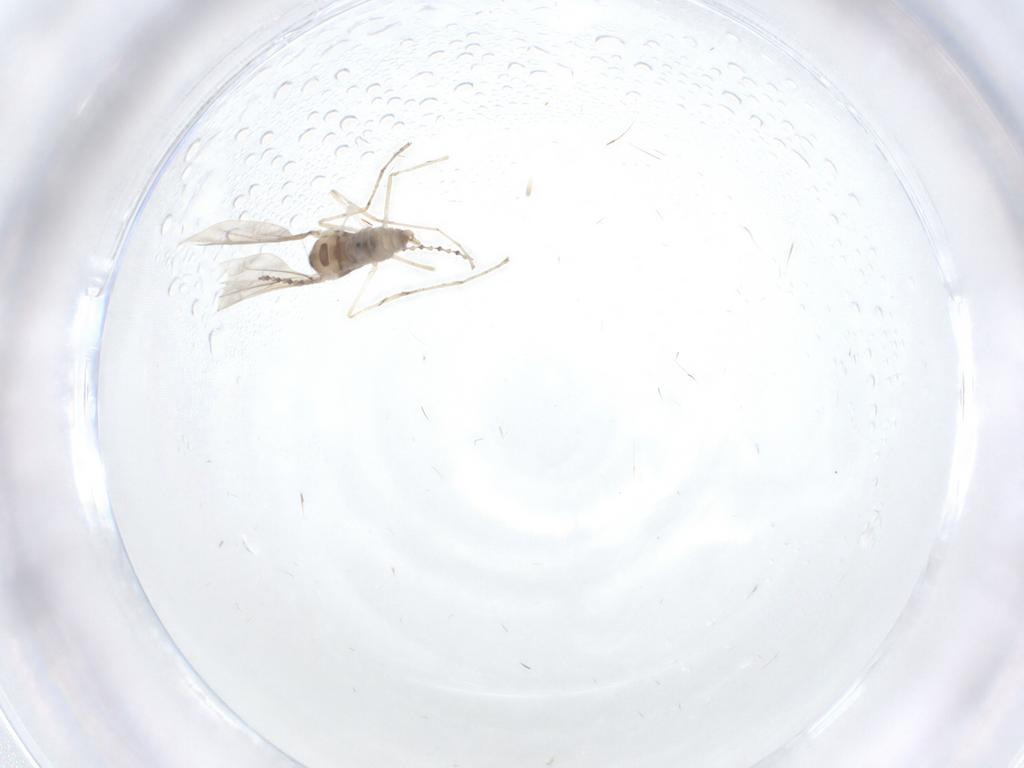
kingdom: Animalia
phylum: Arthropoda
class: Insecta
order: Diptera
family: Cecidomyiidae
